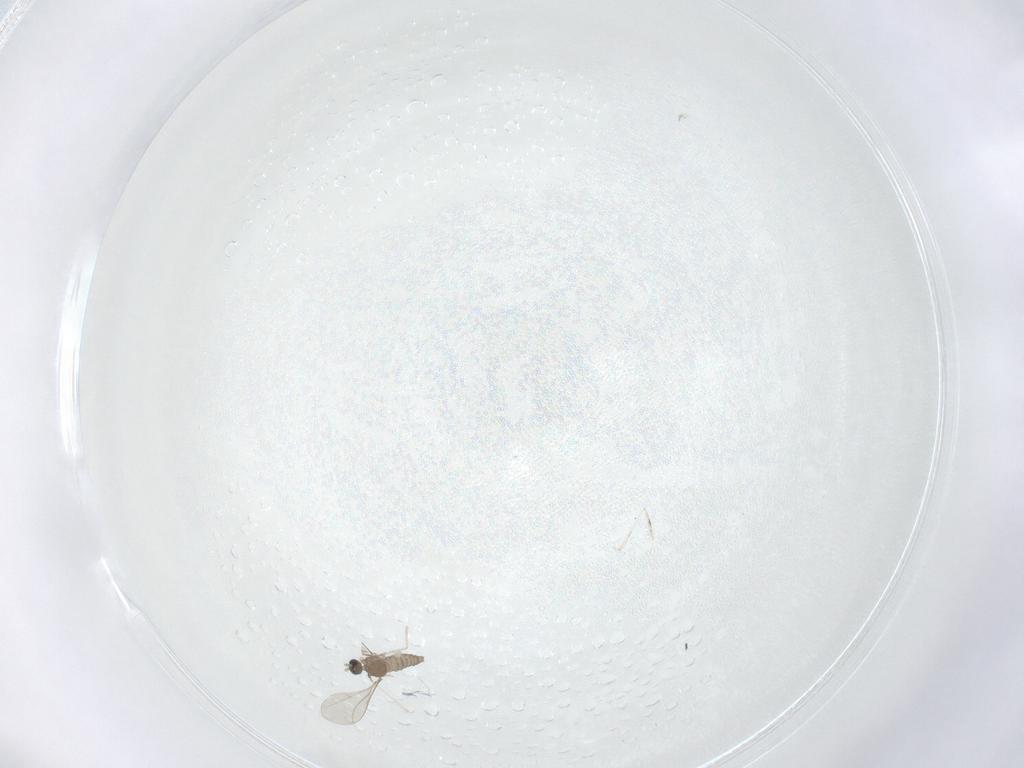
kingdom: Animalia
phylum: Arthropoda
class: Insecta
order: Diptera
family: Cecidomyiidae
